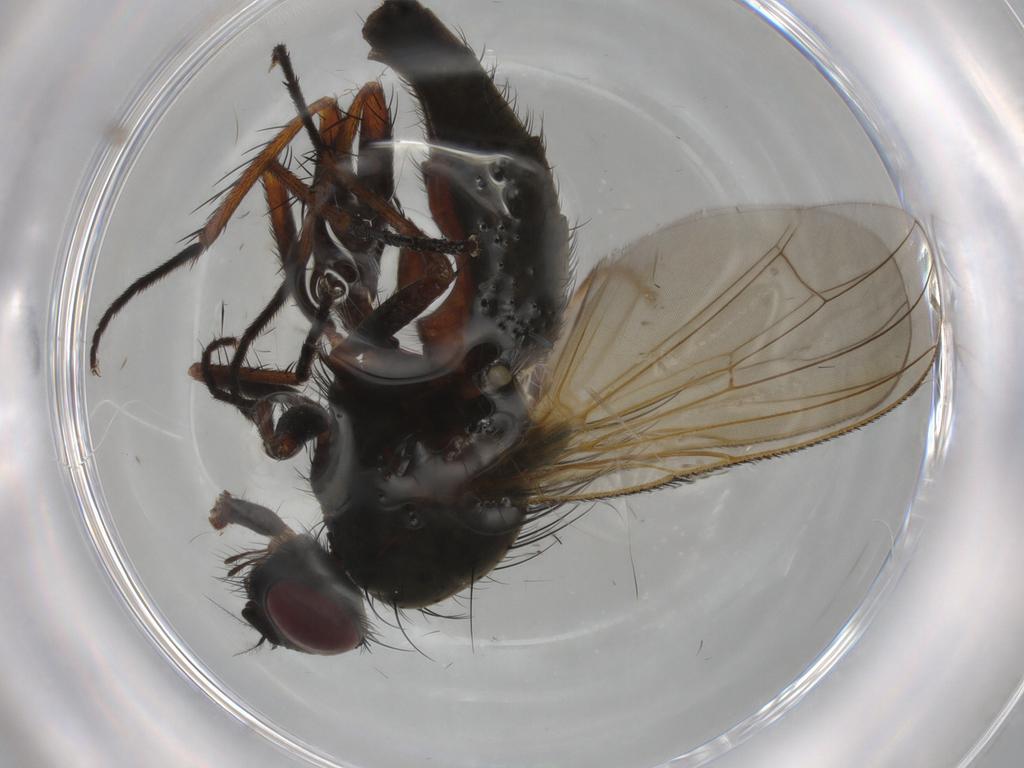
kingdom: Animalia
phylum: Arthropoda
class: Insecta
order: Diptera
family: Anthomyiidae
